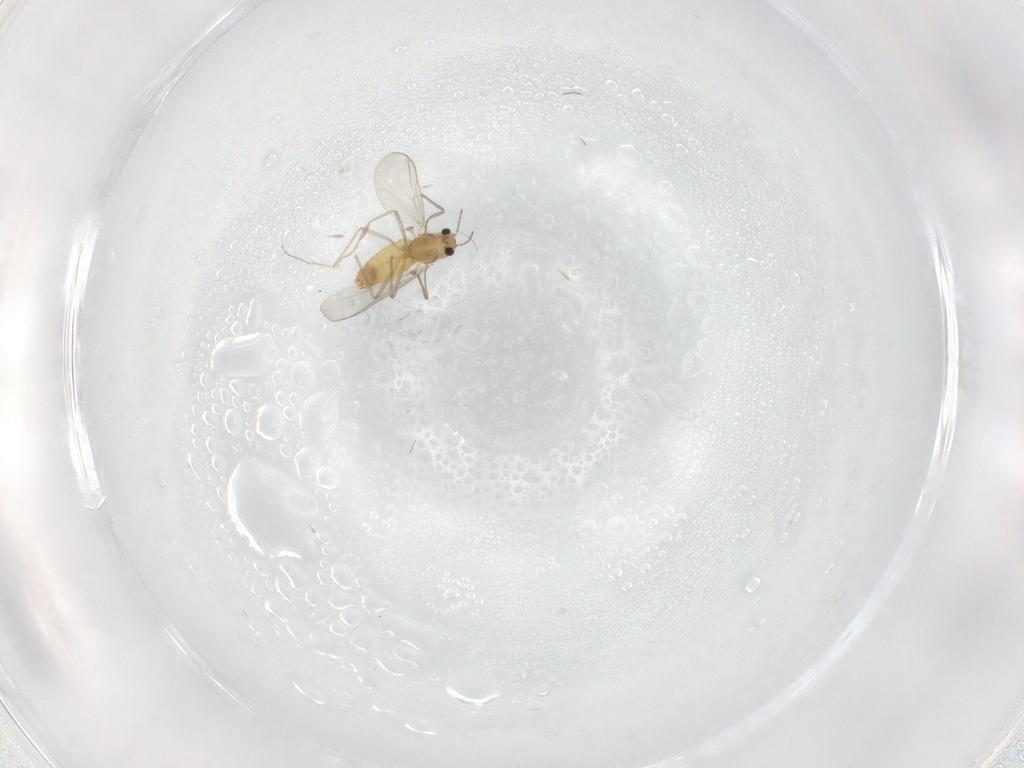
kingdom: Animalia
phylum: Arthropoda
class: Insecta
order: Diptera
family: Chironomidae
